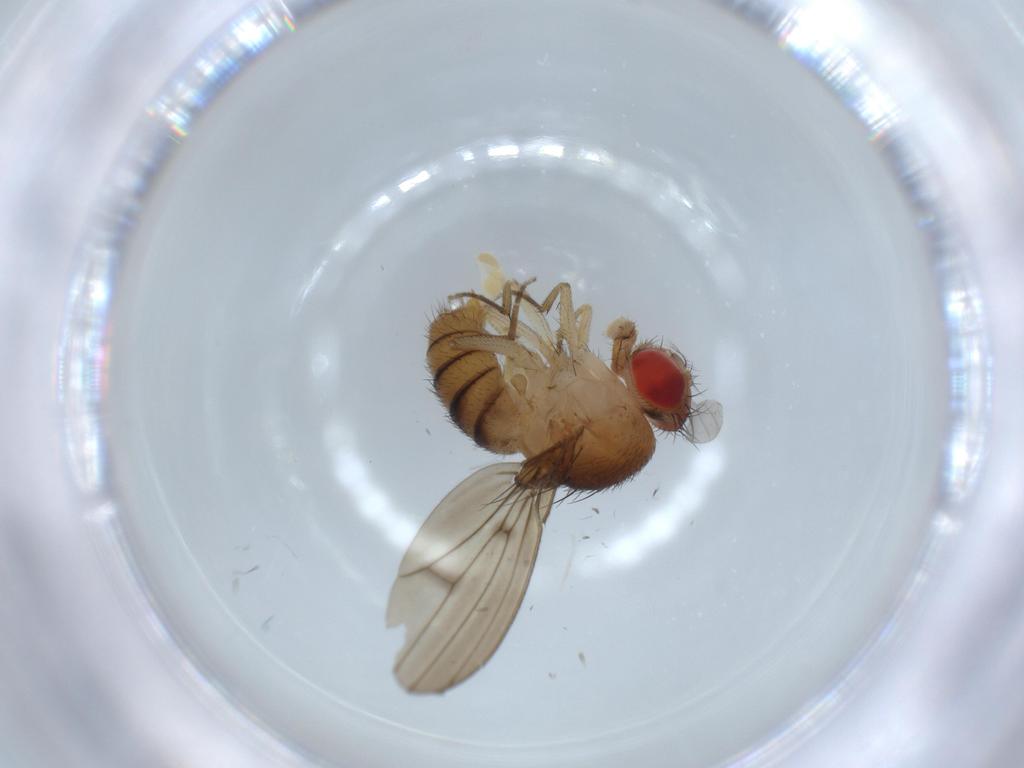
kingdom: Animalia
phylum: Arthropoda
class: Insecta
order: Diptera
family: Drosophilidae
